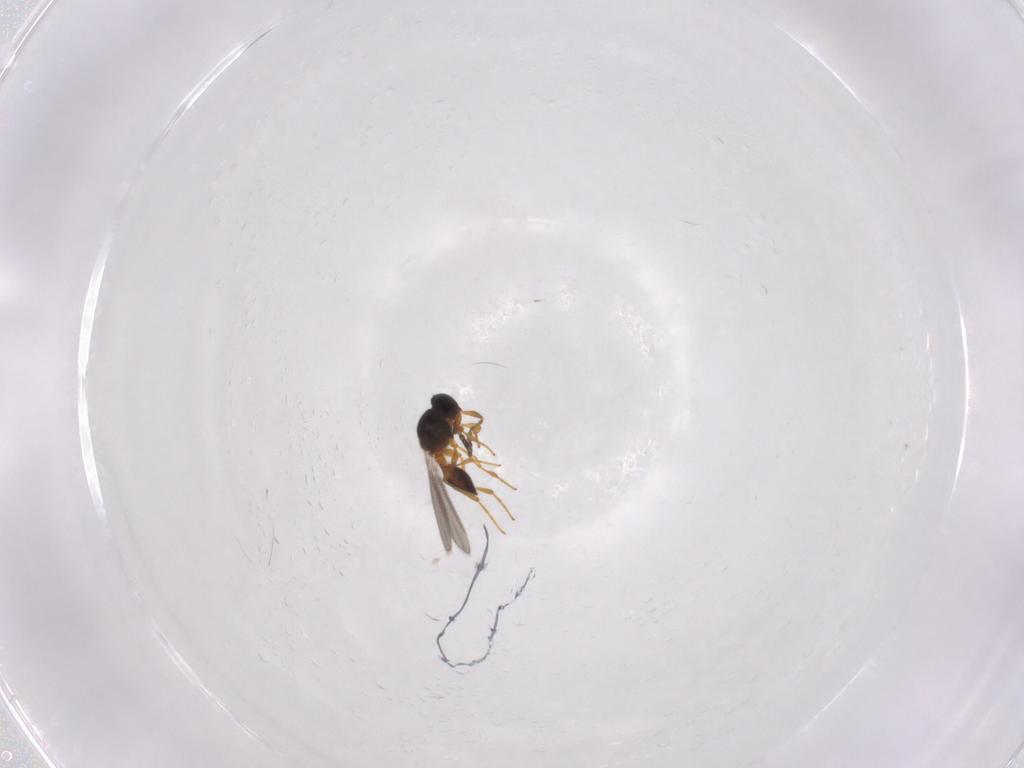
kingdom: Animalia
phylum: Arthropoda
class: Insecta
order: Hymenoptera
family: Platygastridae
